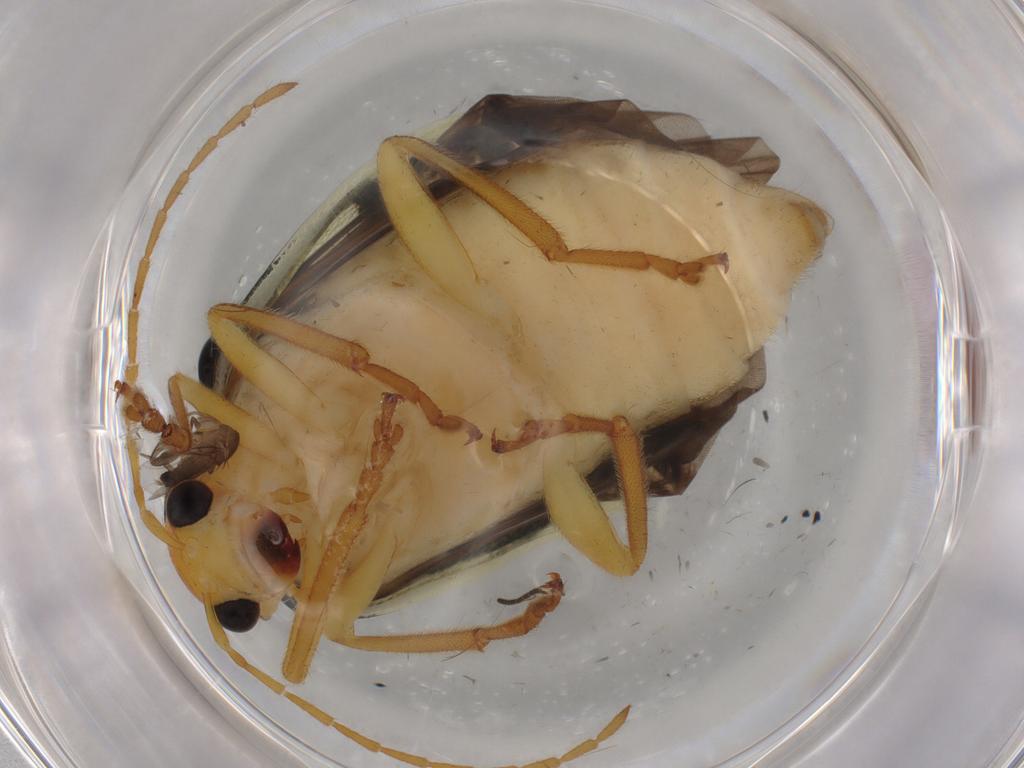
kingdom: Animalia
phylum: Arthropoda
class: Insecta
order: Coleoptera
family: Chrysomelidae
